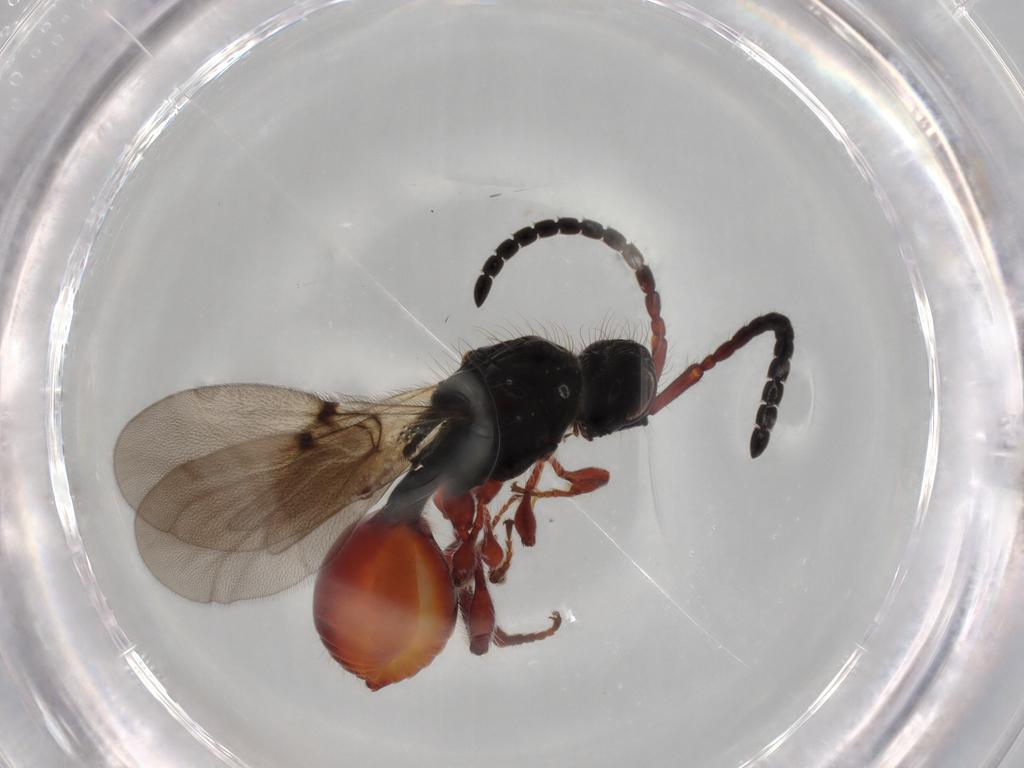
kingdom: Animalia
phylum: Arthropoda
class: Insecta
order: Hymenoptera
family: Diapriidae
